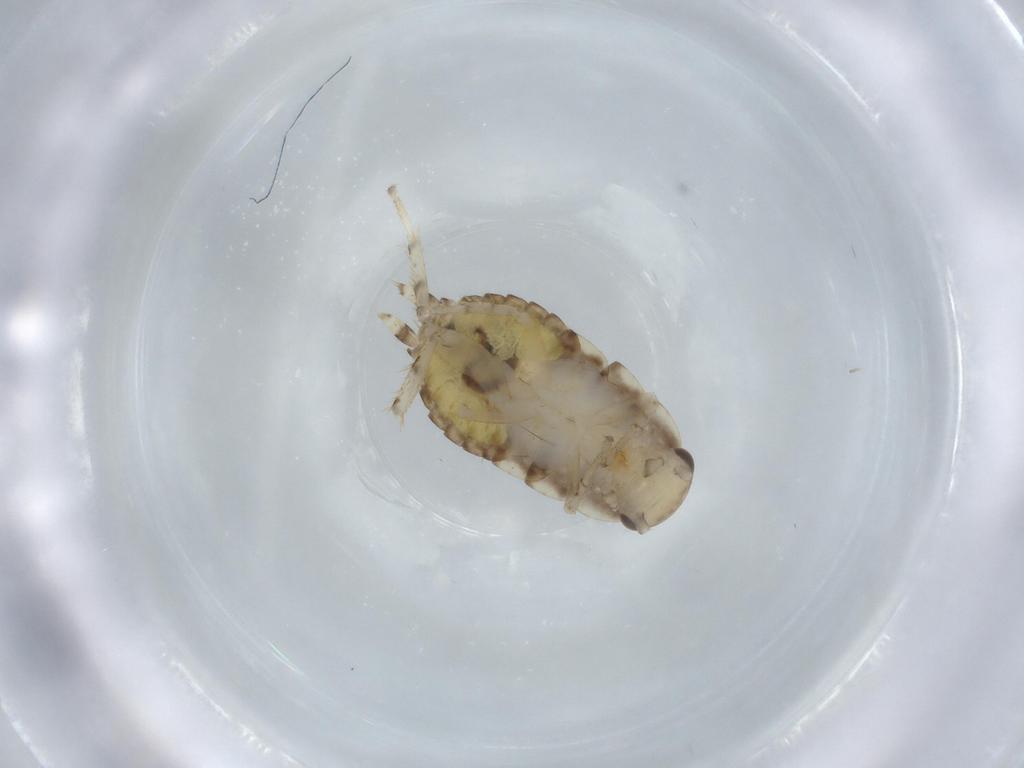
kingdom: Animalia
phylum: Arthropoda
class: Insecta
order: Blattodea
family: Ectobiidae
